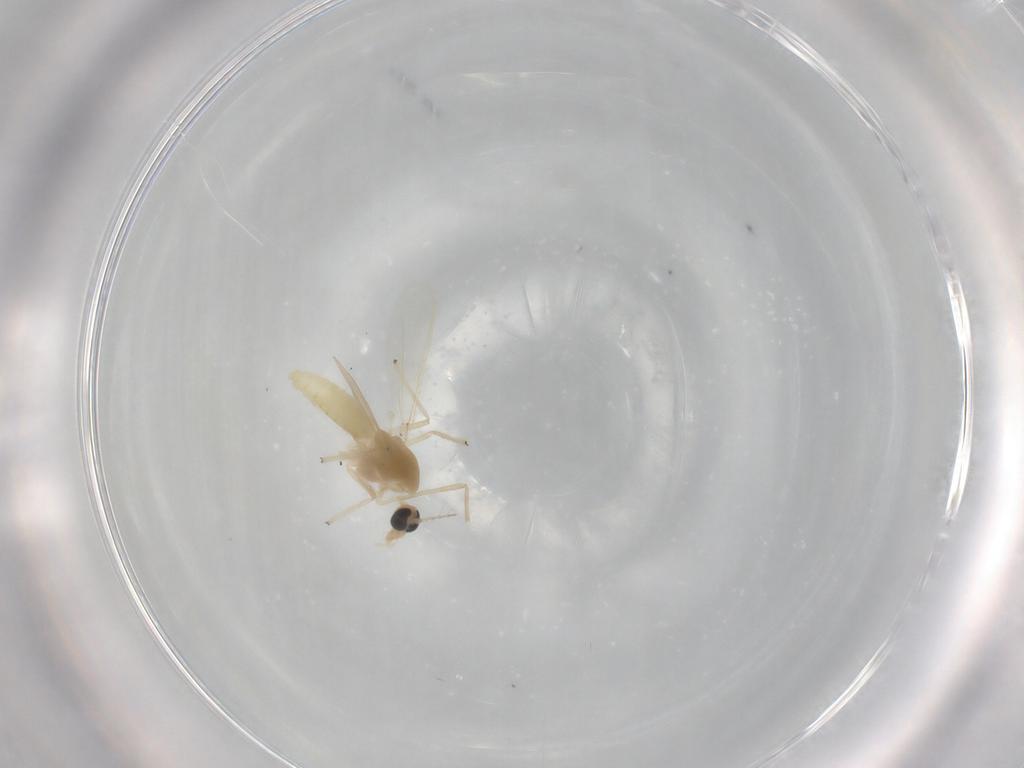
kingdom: Animalia
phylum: Arthropoda
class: Insecta
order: Diptera
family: Chironomidae
